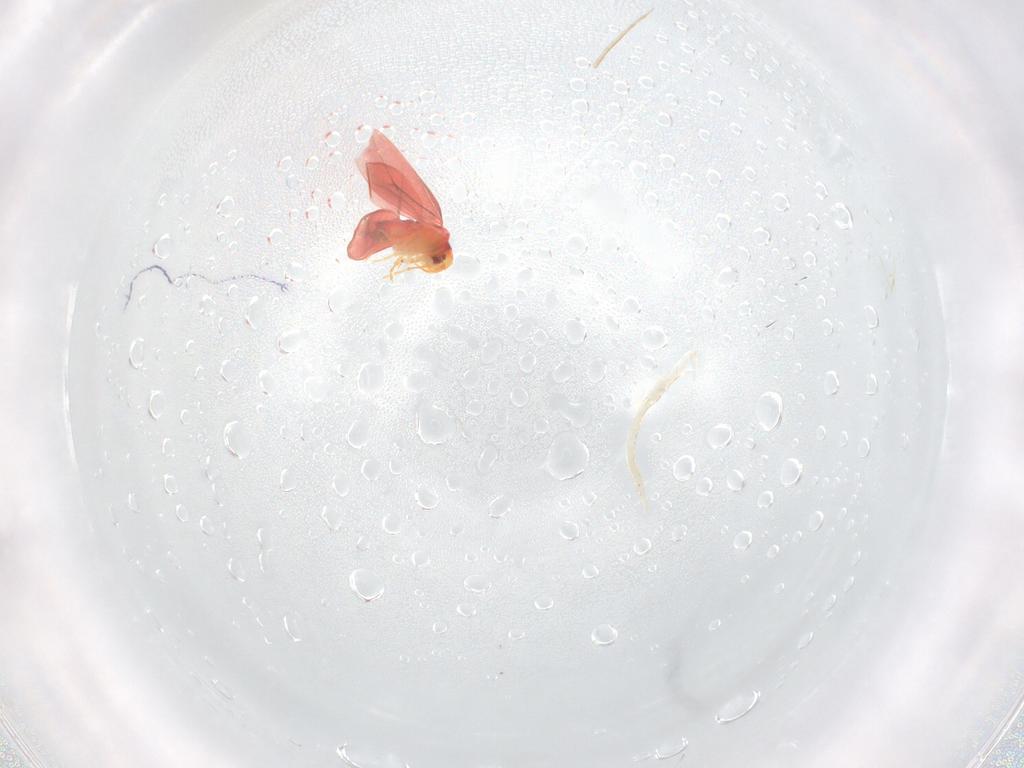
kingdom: Animalia
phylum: Arthropoda
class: Insecta
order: Hemiptera
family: Aleyrodidae
